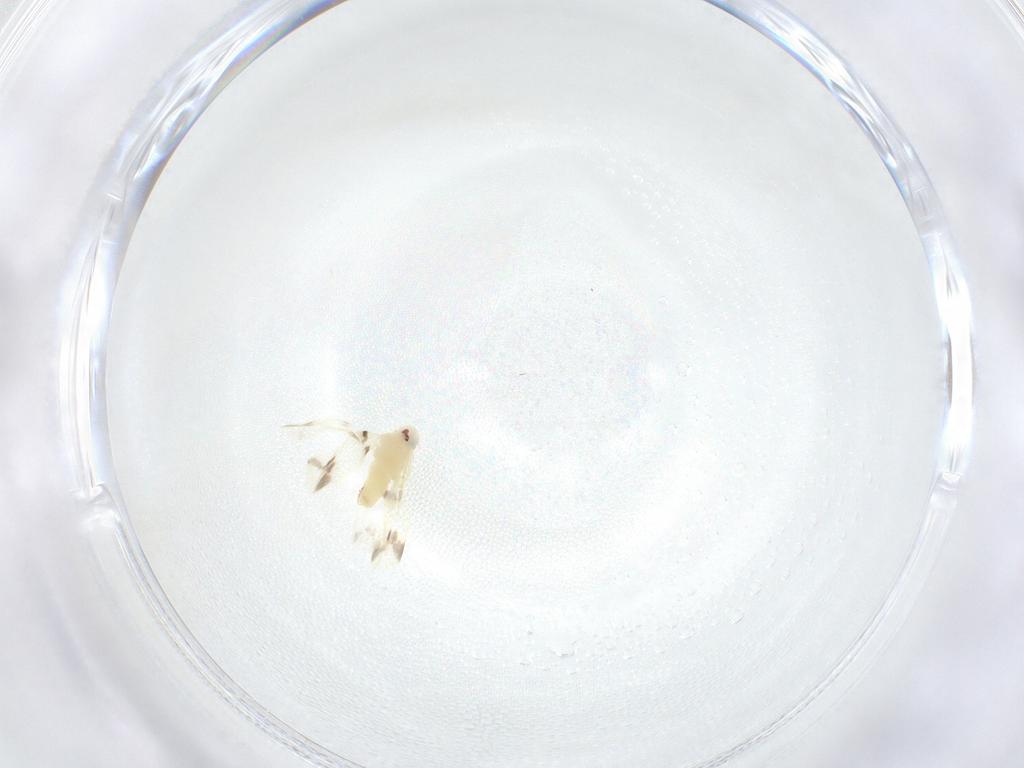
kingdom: Animalia
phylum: Arthropoda
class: Insecta
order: Hemiptera
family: Aleyrodidae
